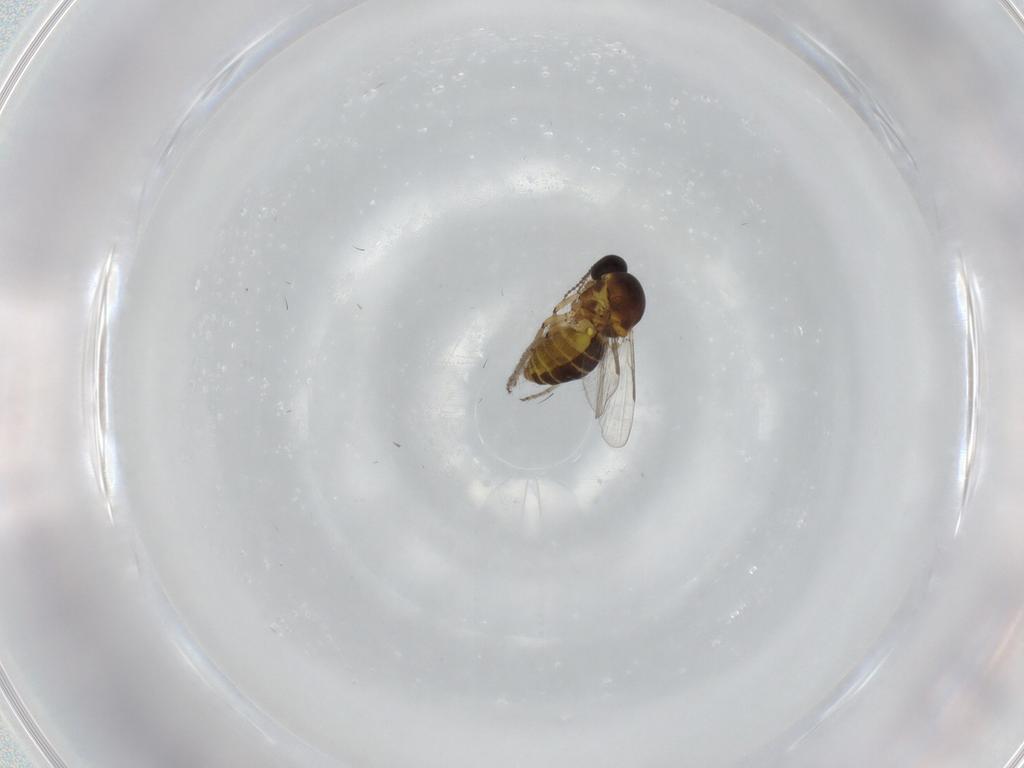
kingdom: Animalia
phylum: Arthropoda
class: Insecta
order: Diptera
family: Ceratopogonidae
